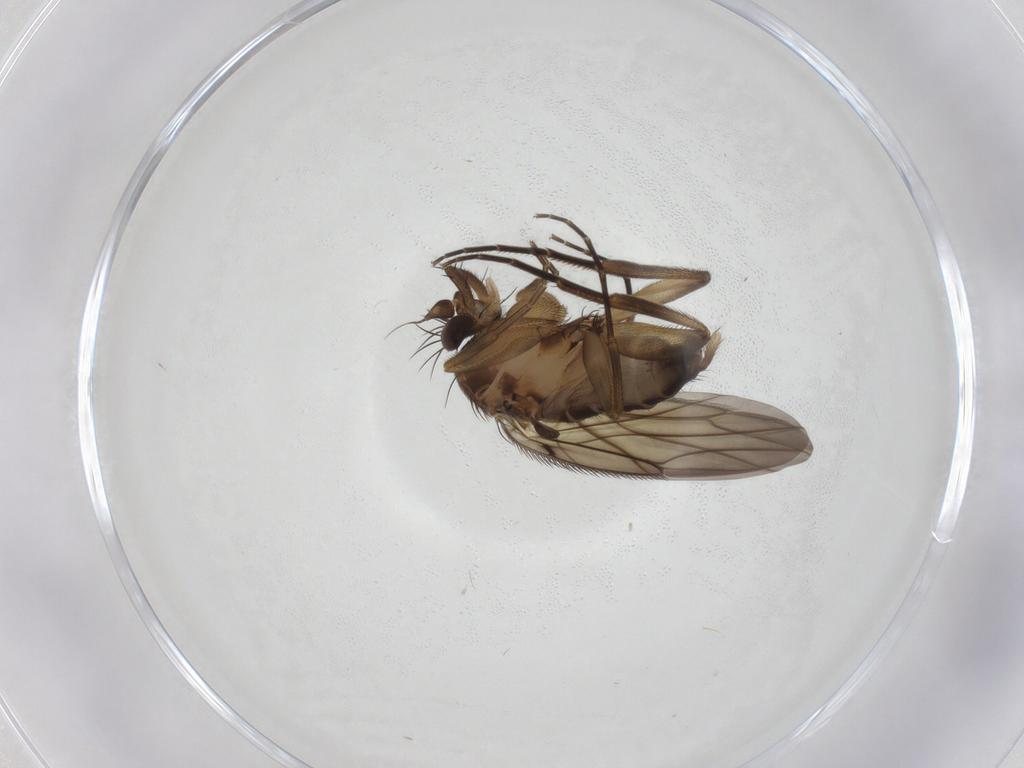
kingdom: Animalia
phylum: Arthropoda
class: Insecta
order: Diptera
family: Phoridae
